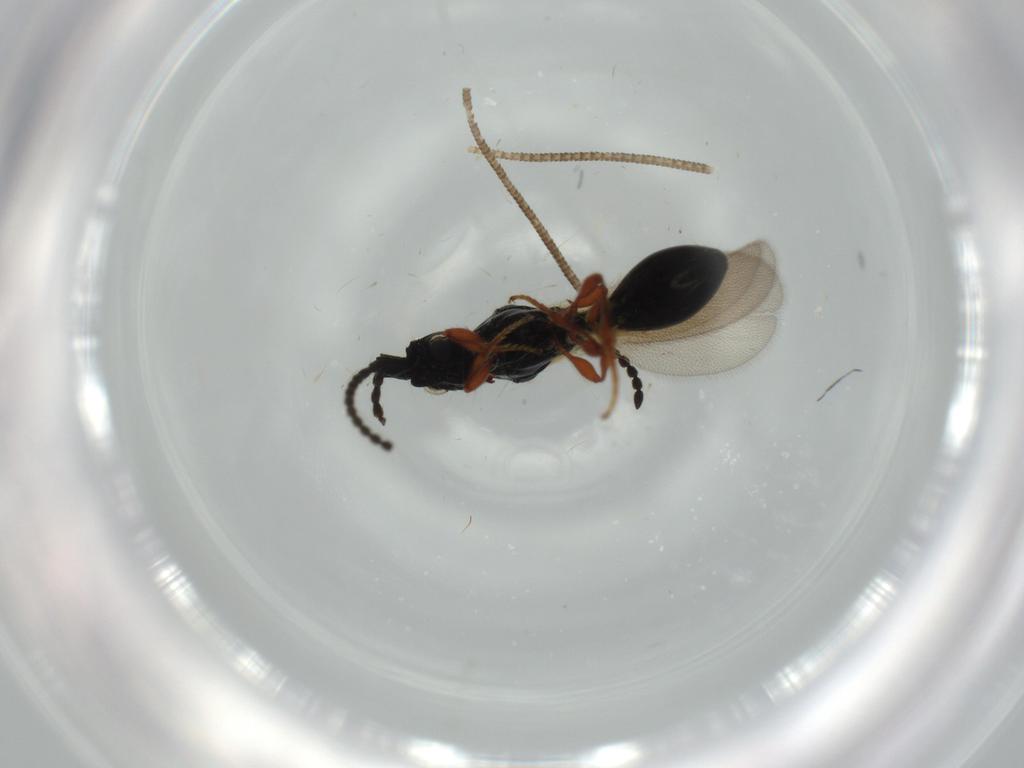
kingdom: Animalia
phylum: Arthropoda
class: Insecta
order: Hymenoptera
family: Diapriidae
